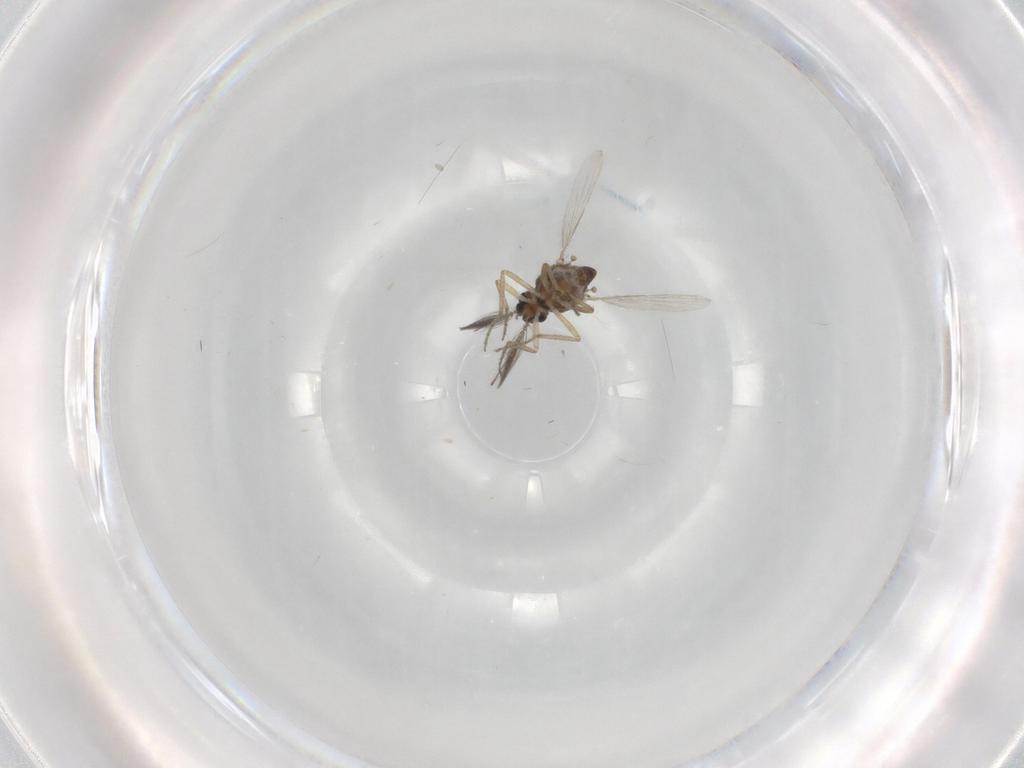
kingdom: Animalia
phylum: Arthropoda
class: Insecta
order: Diptera
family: Ceratopogonidae
